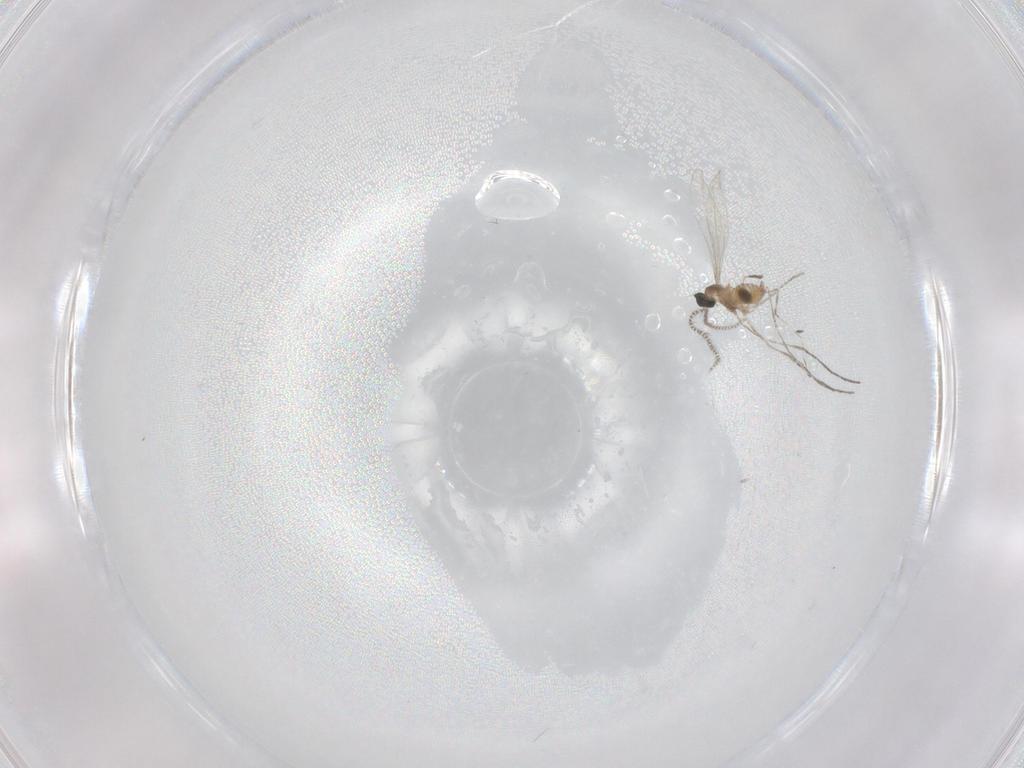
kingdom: Animalia
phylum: Arthropoda
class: Insecta
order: Diptera
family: Cecidomyiidae
